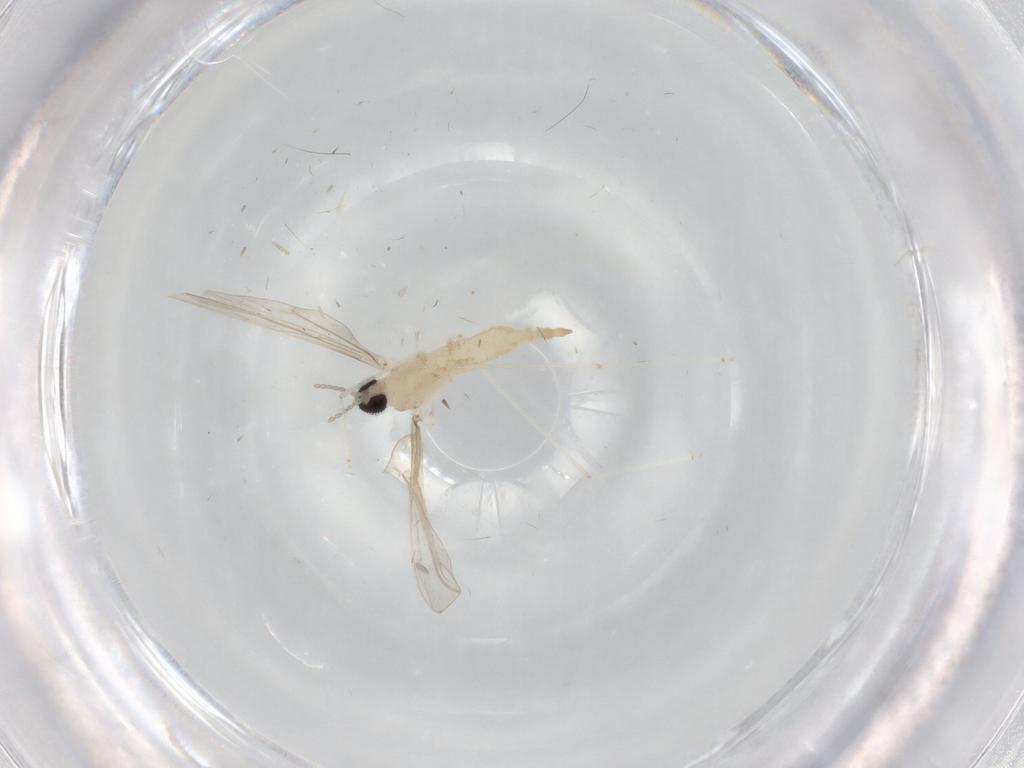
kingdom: Animalia
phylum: Arthropoda
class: Insecta
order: Diptera
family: Cecidomyiidae
